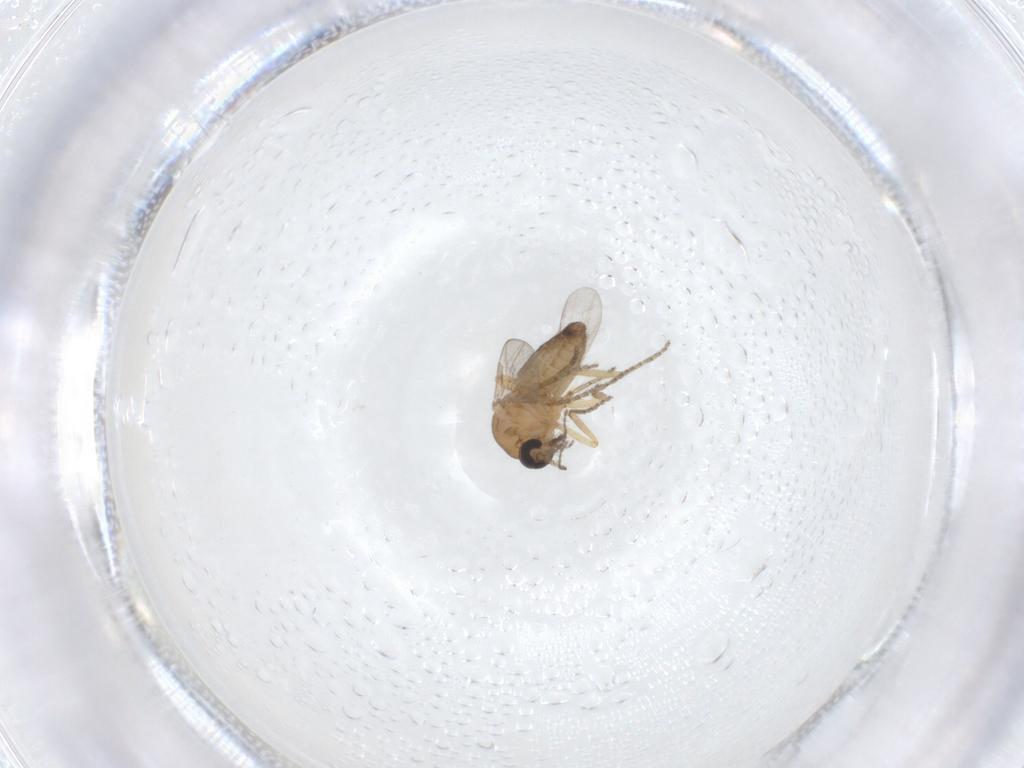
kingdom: Animalia
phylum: Arthropoda
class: Insecta
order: Diptera
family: Ceratopogonidae
